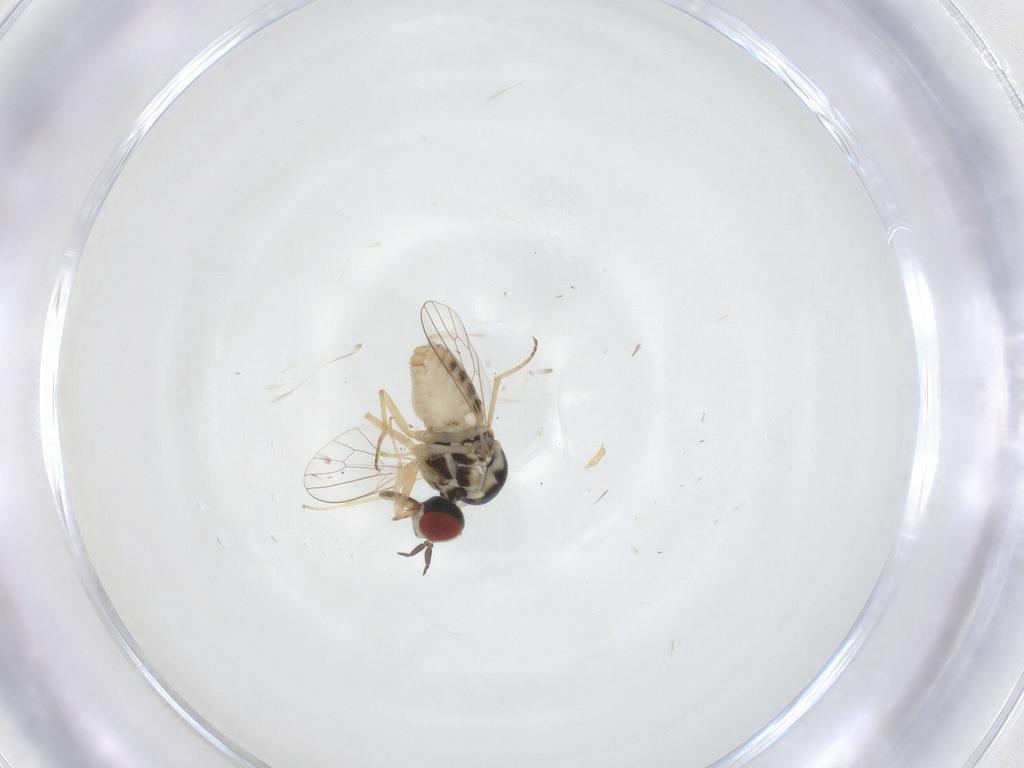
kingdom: Animalia
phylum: Arthropoda
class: Insecta
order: Diptera
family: Mythicomyiidae
